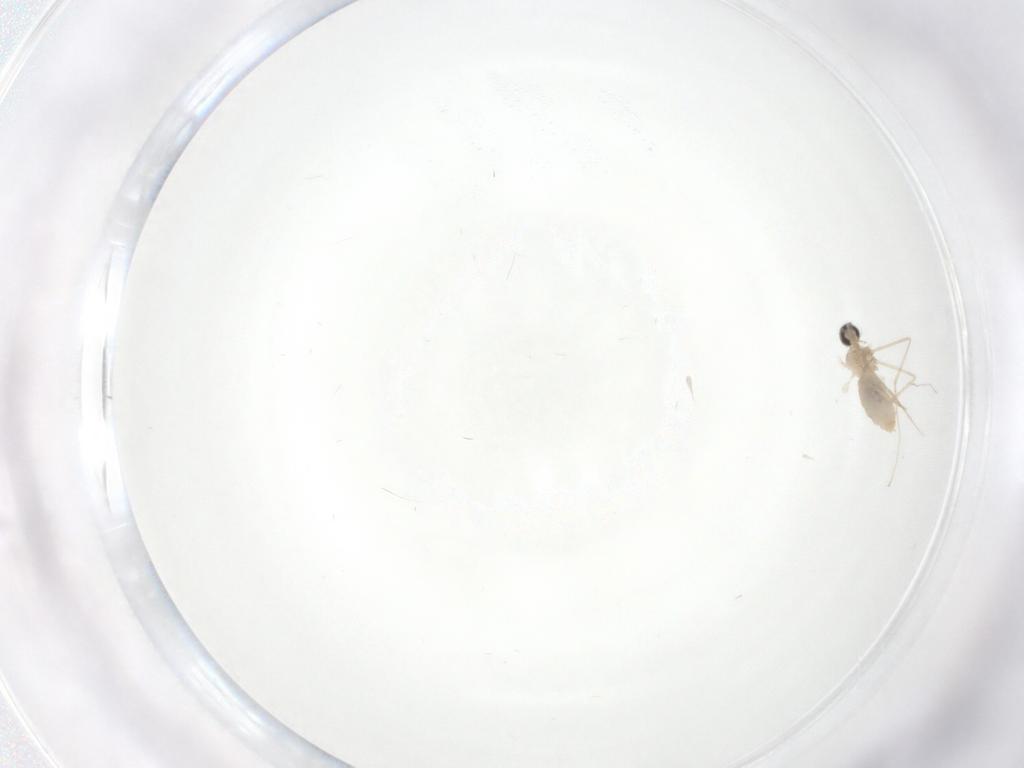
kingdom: Animalia
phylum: Arthropoda
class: Insecta
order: Diptera
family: Cecidomyiidae
